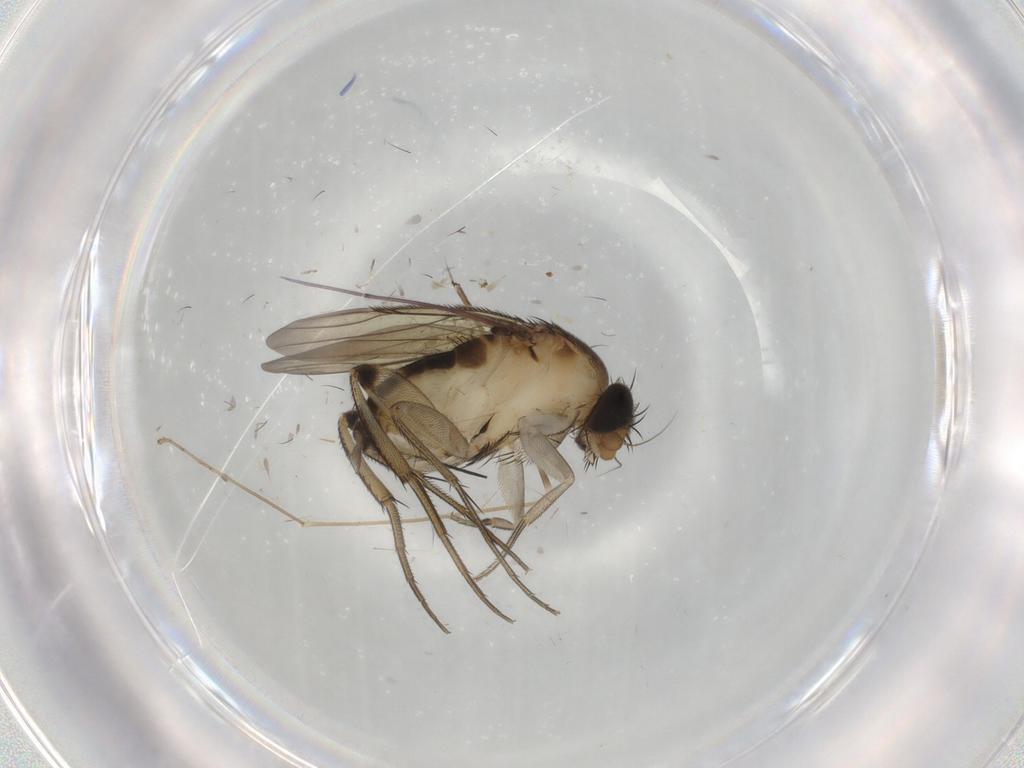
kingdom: Animalia
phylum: Arthropoda
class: Insecta
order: Diptera
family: Phoridae
